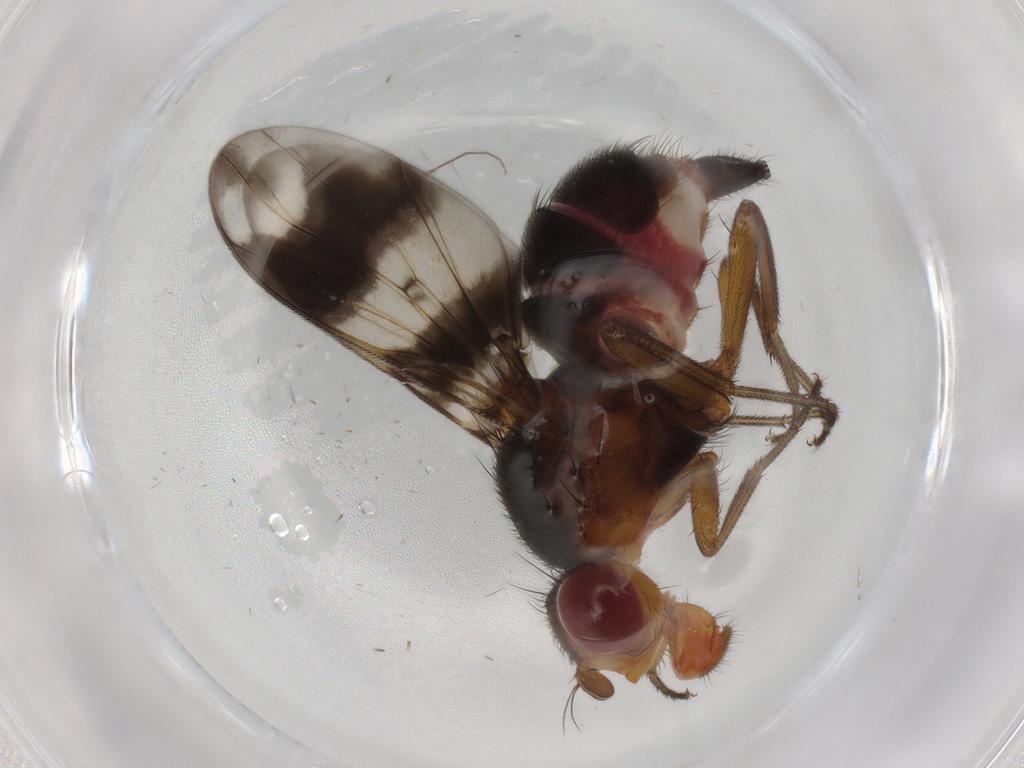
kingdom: Animalia
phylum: Arthropoda
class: Insecta
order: Diptera
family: Richardiidae
